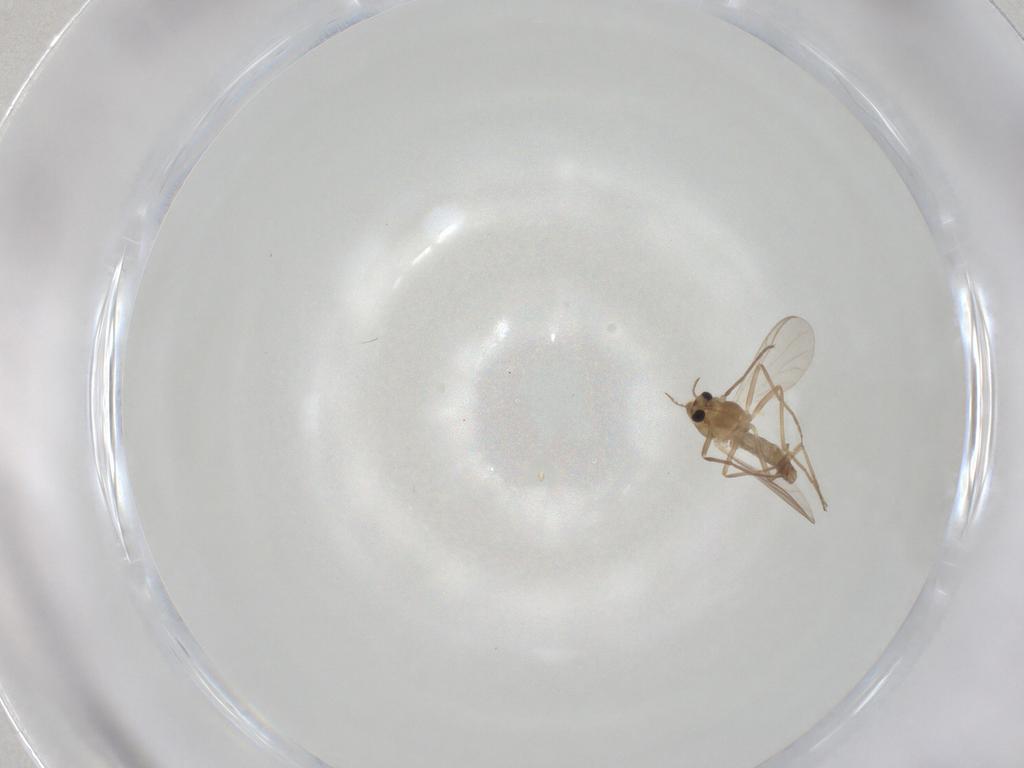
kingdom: Animalia
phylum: Arthropoda
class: Insecta
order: Diptera
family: Chironomidae
